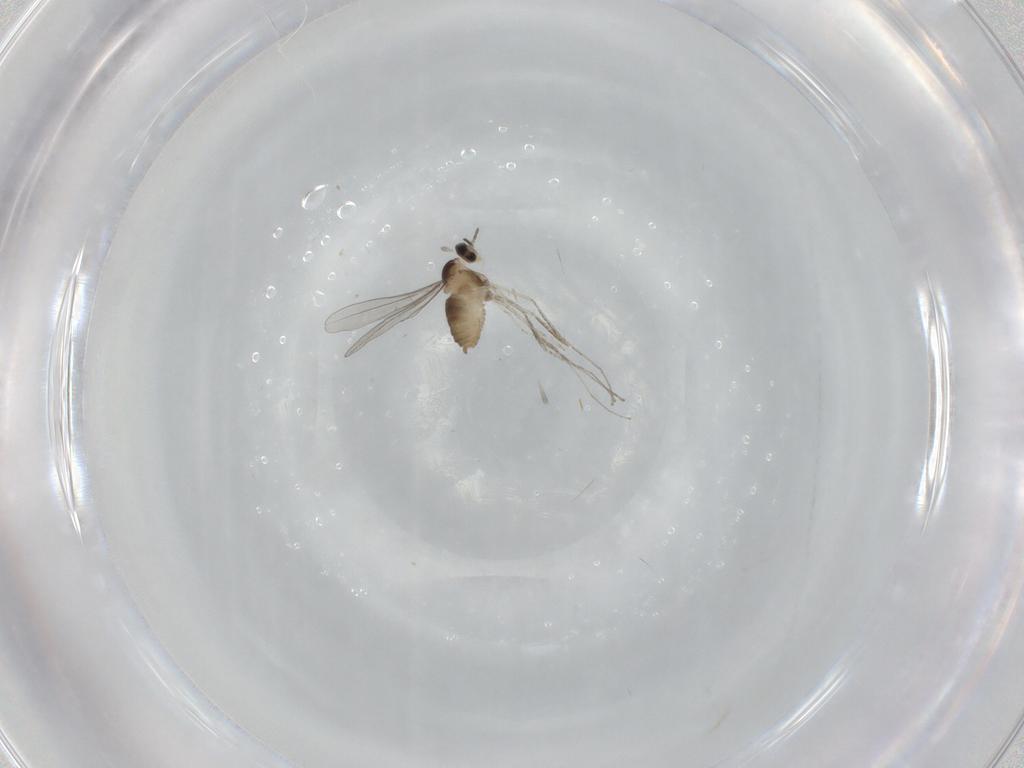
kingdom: Animalia
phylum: Arthropoda
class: Insecta
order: Diptera
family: Cecidomyiidae
